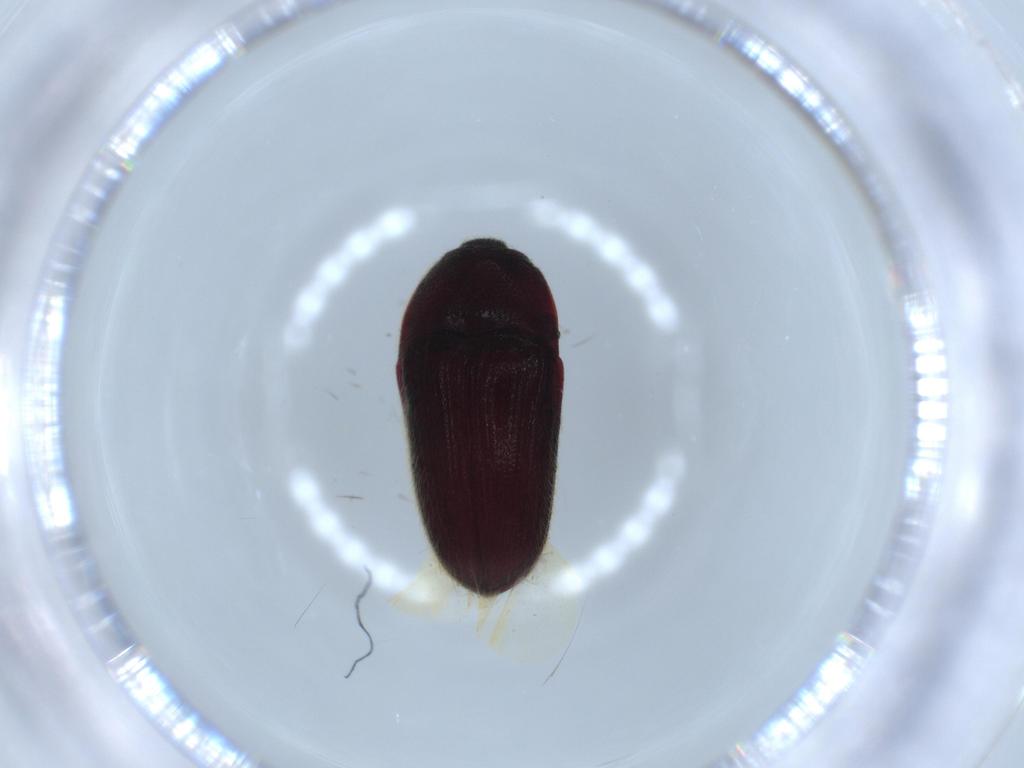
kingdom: Animalia
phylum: Arthropoda
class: Insecta
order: Coleoptera
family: Throscidae
